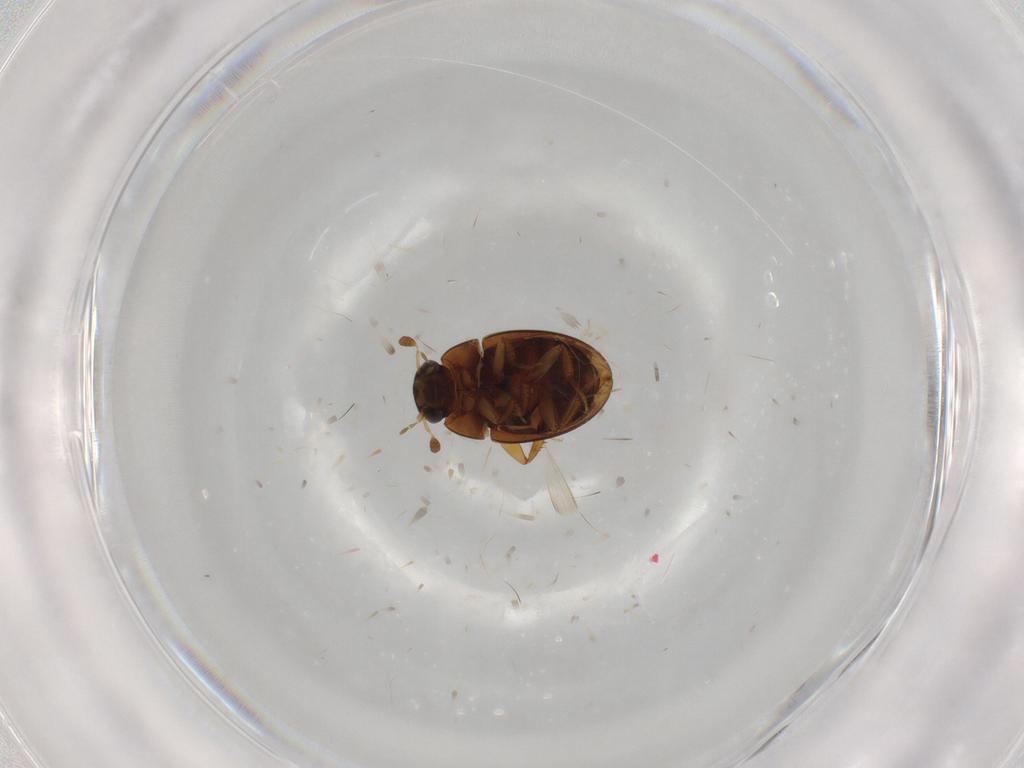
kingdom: Animalia
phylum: Arthropoda
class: Insecta
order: Coleoptera
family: Hydrophilidae
